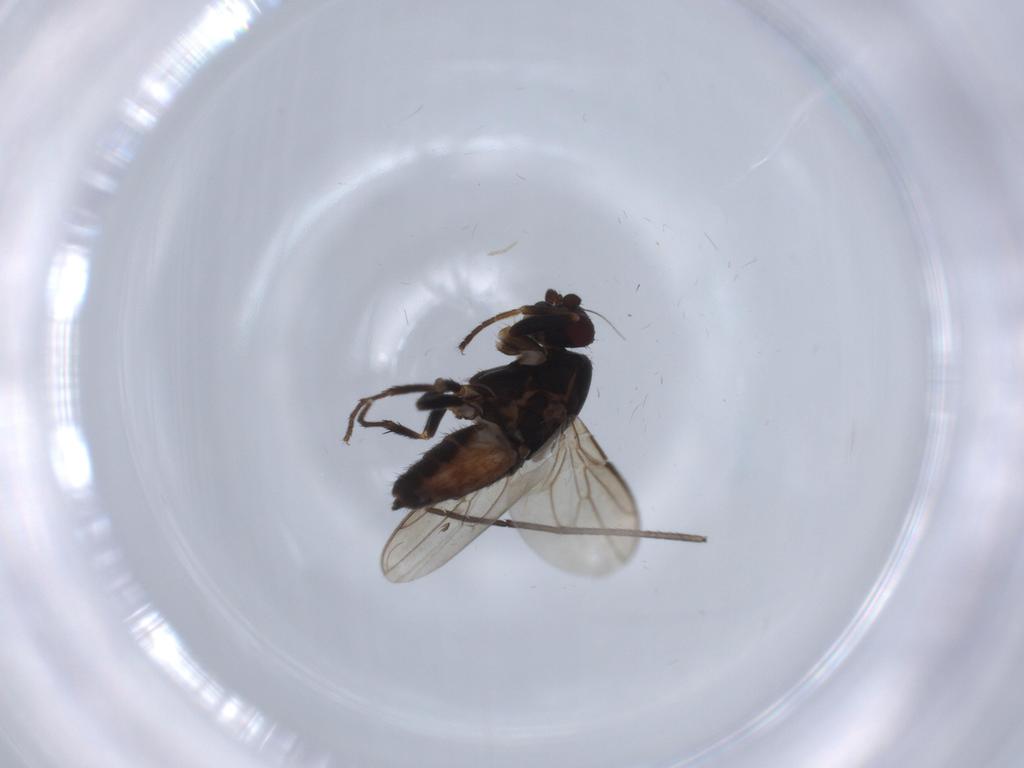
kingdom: Animalia
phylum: Arthropoda
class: Insecta
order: Diptera
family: Sphaeroceridae
